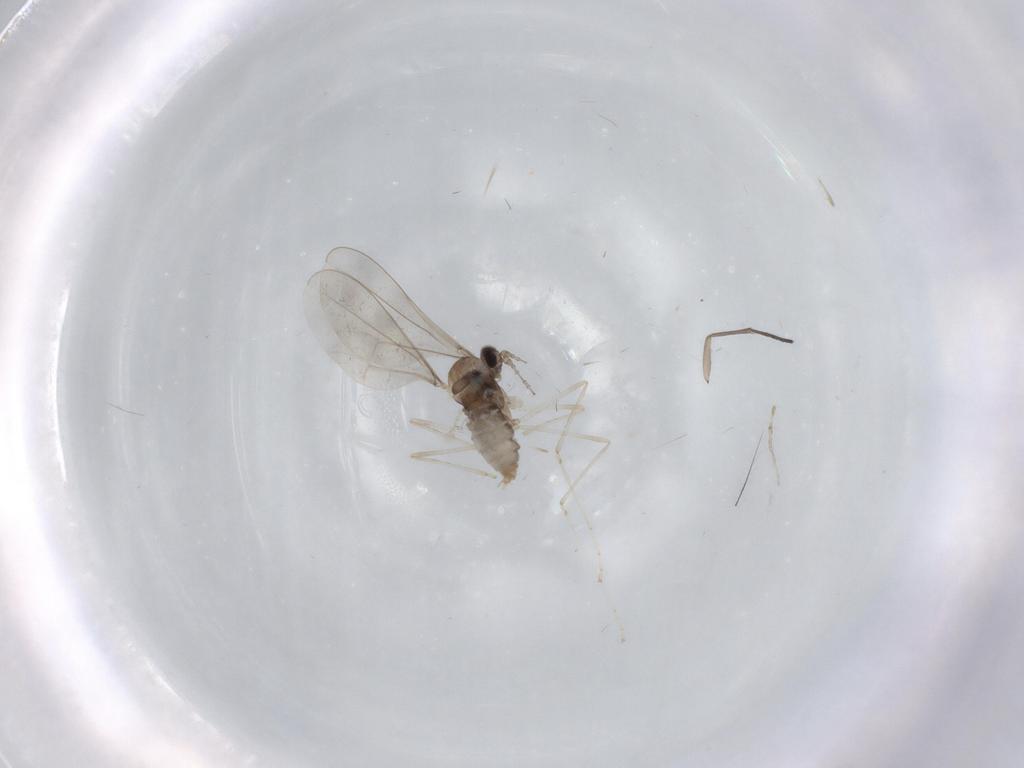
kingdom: Animalia
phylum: Arthropoda
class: Insecta
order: Diptera
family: Cecidomyiidae
